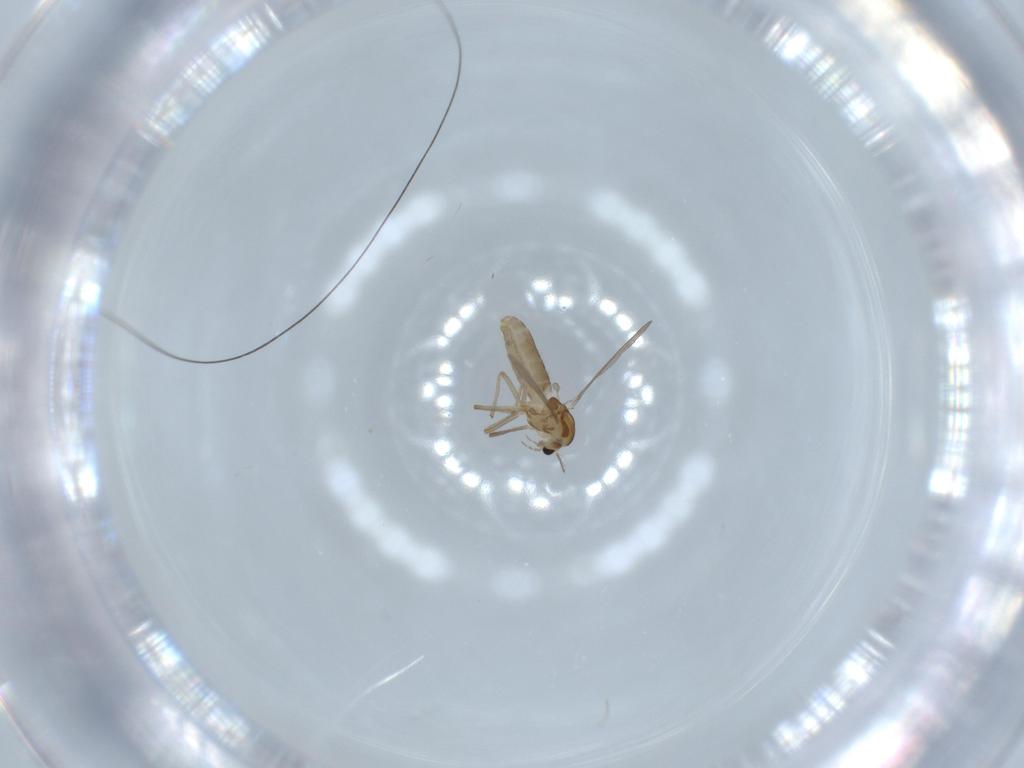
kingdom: Animalia
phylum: Arthropoda
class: Insecta
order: Diptera
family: Chironomidae
